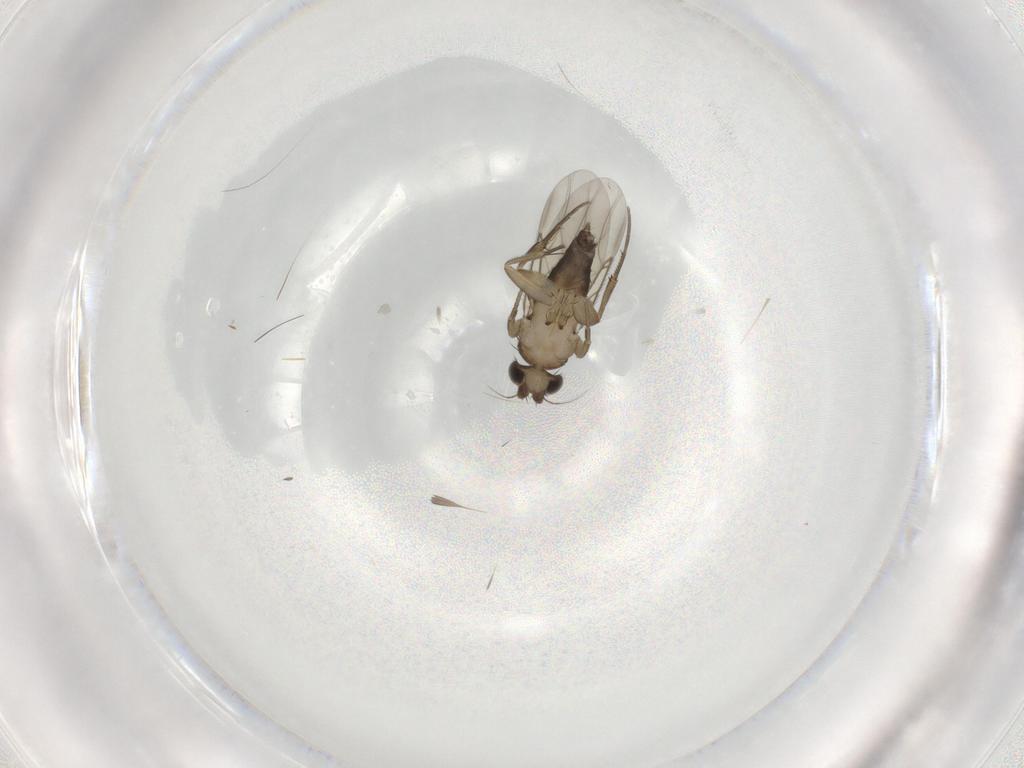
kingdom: Animalia
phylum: Arthropoda
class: Insecta
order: Diptera
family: Phoridae
